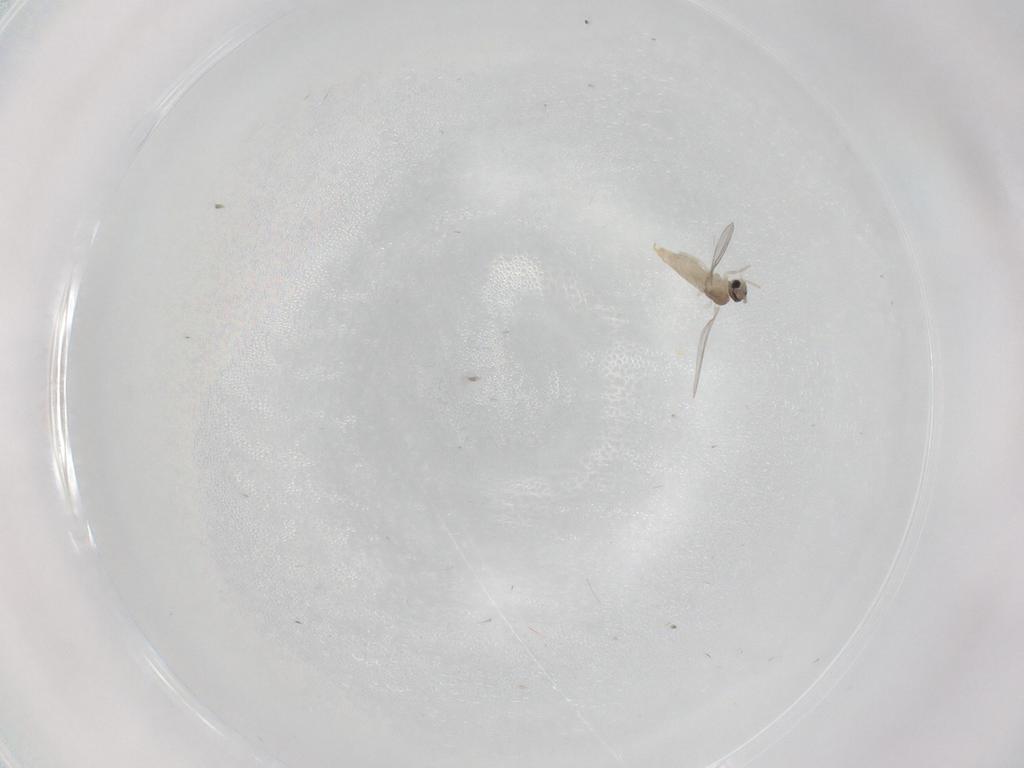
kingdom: Animalia
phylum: Arthropoda
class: Insecta
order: Diptera
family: Cecidomyiidae
